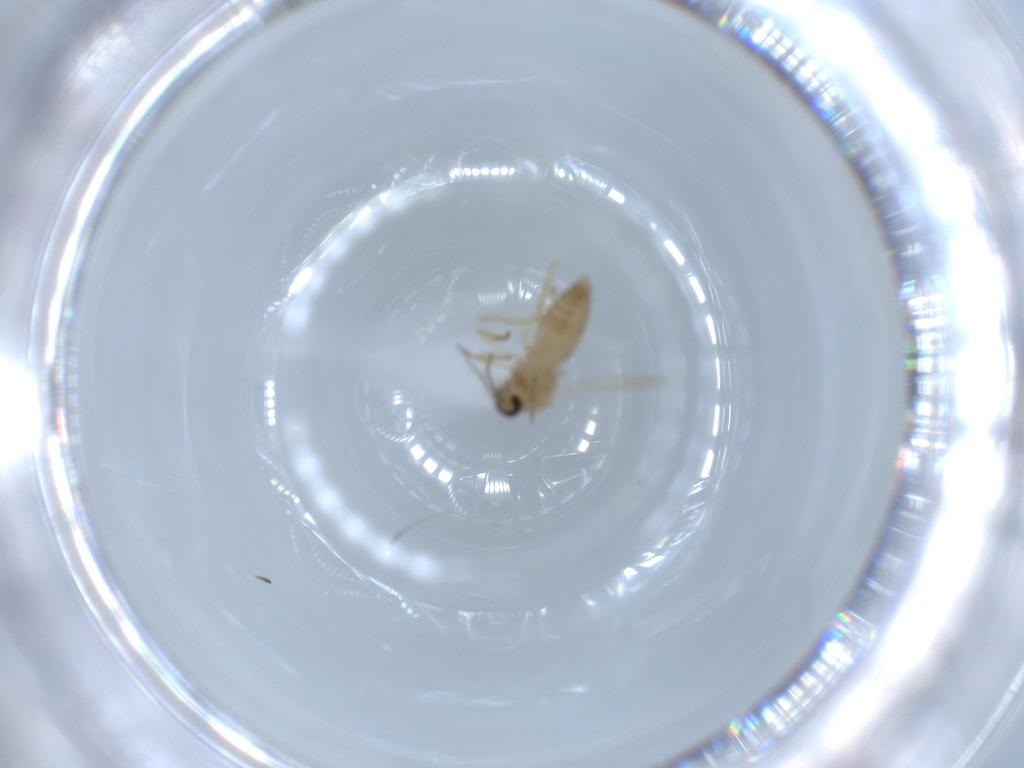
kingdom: Animalia
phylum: Arthropoda
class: Insecta
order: Diptera
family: Ceratopogonidae
